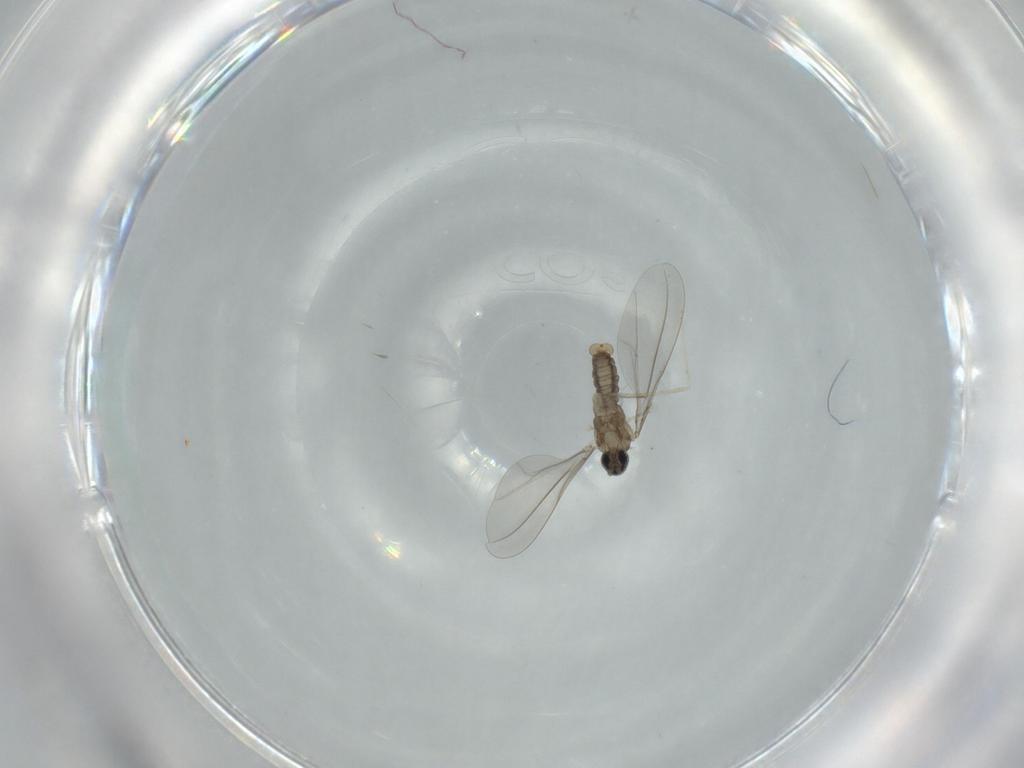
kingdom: Animalia
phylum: Arthropoda
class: Insecta
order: Diptera
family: Cecidomyiidae
